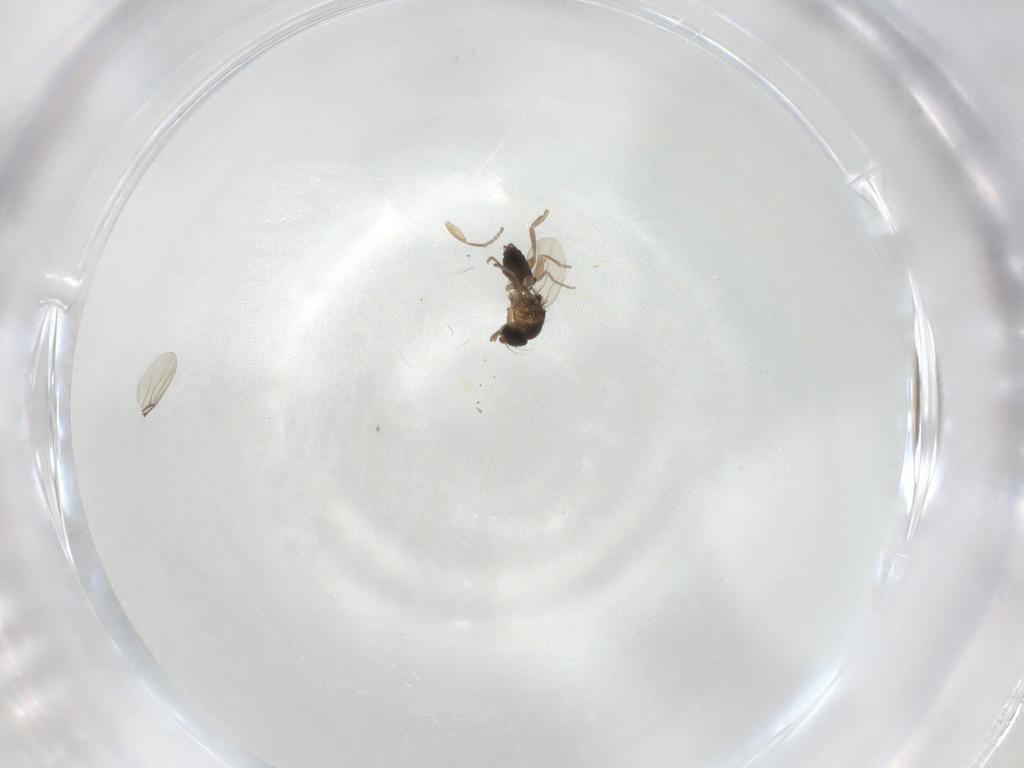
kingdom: Animalia
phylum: Arthropoda
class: Insecta
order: Diptera
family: Phoridae
